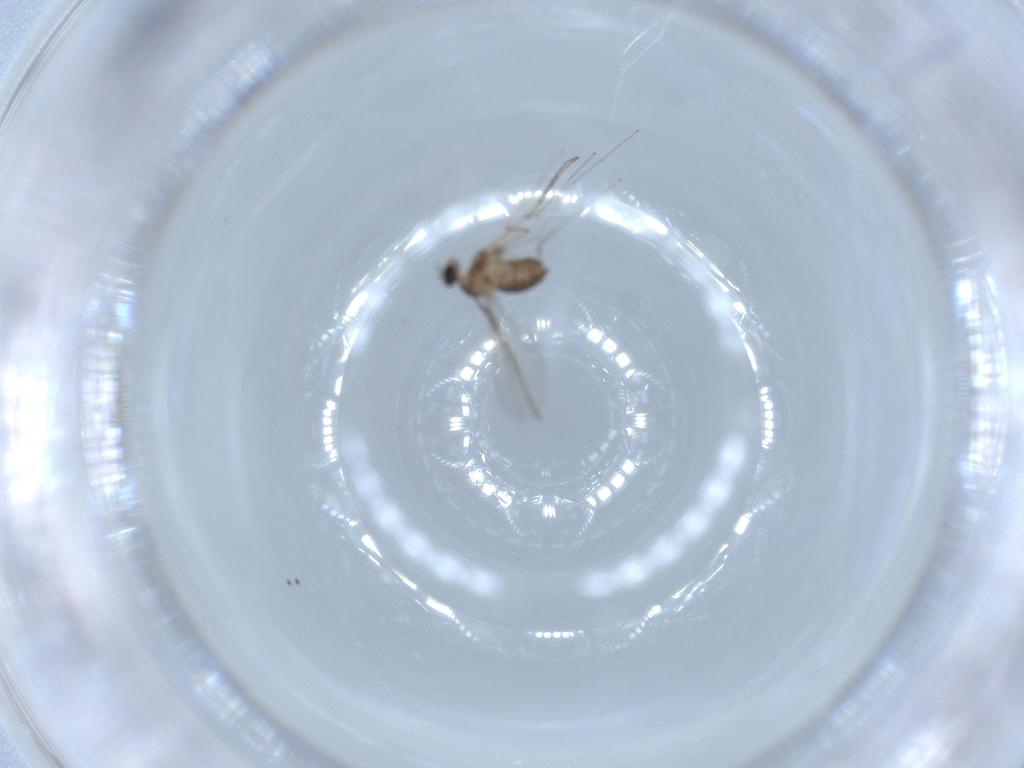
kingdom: Animalia
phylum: Arthropoda
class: Insecta
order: Diptera
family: Cecidomyiidae
